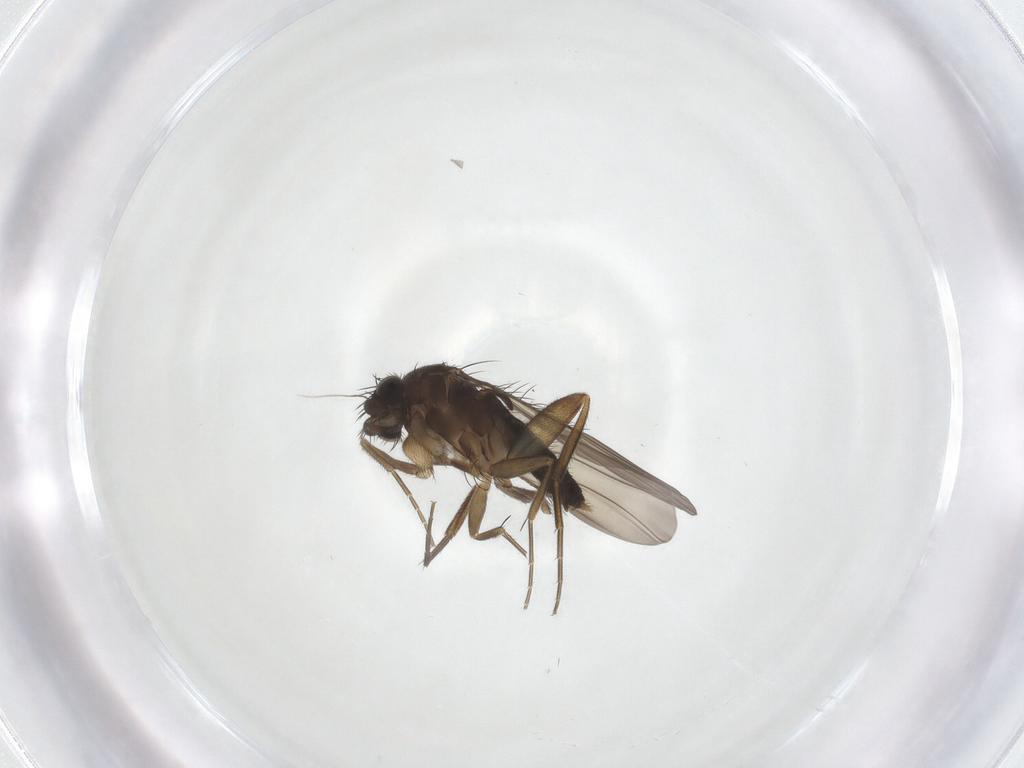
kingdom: Animalia
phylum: Arthropoda
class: Insecta
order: Diptera
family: Phoridae
